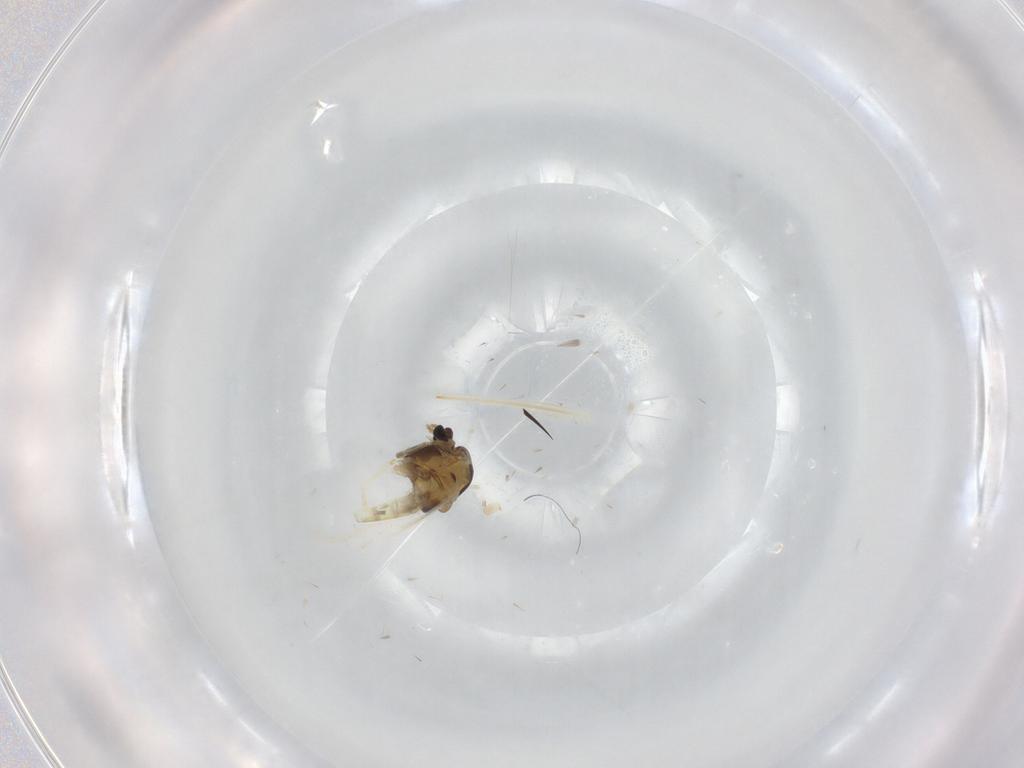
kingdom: Animalia
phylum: Arthropoda
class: Insecta
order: Diptera
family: Chironomidae
